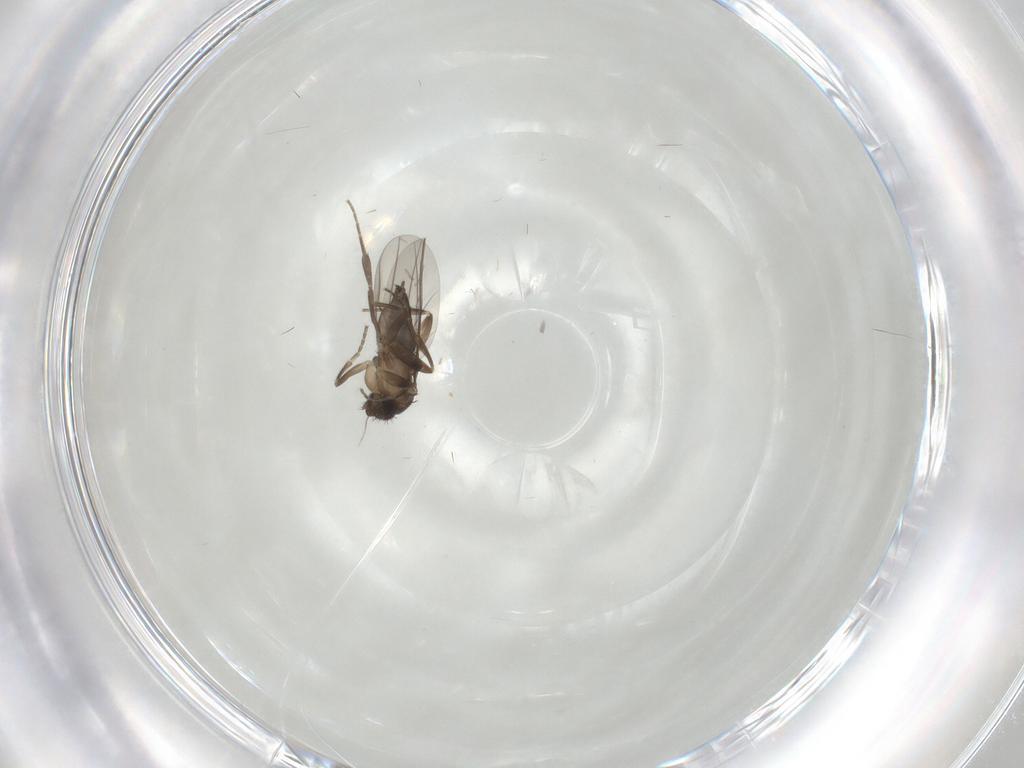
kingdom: Animalia
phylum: Arthropoda
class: Insecta
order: Diptera
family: Phoridae
